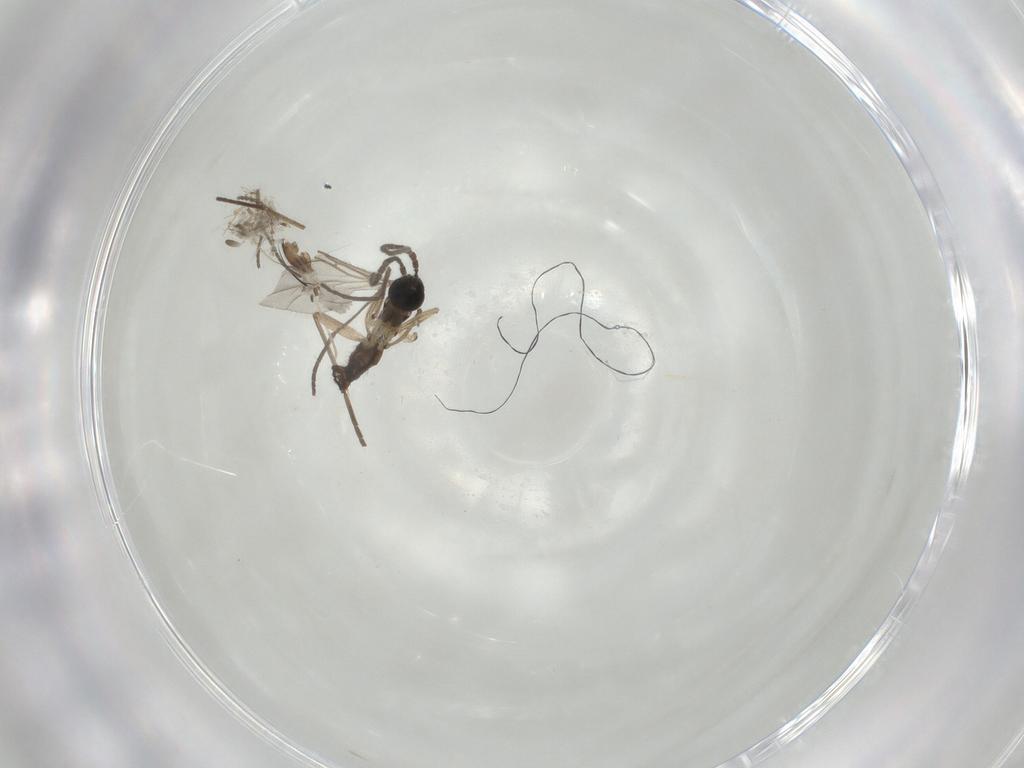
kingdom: Animalia
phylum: Arthropoda
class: Insecta
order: Diptera
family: Sciaridae
